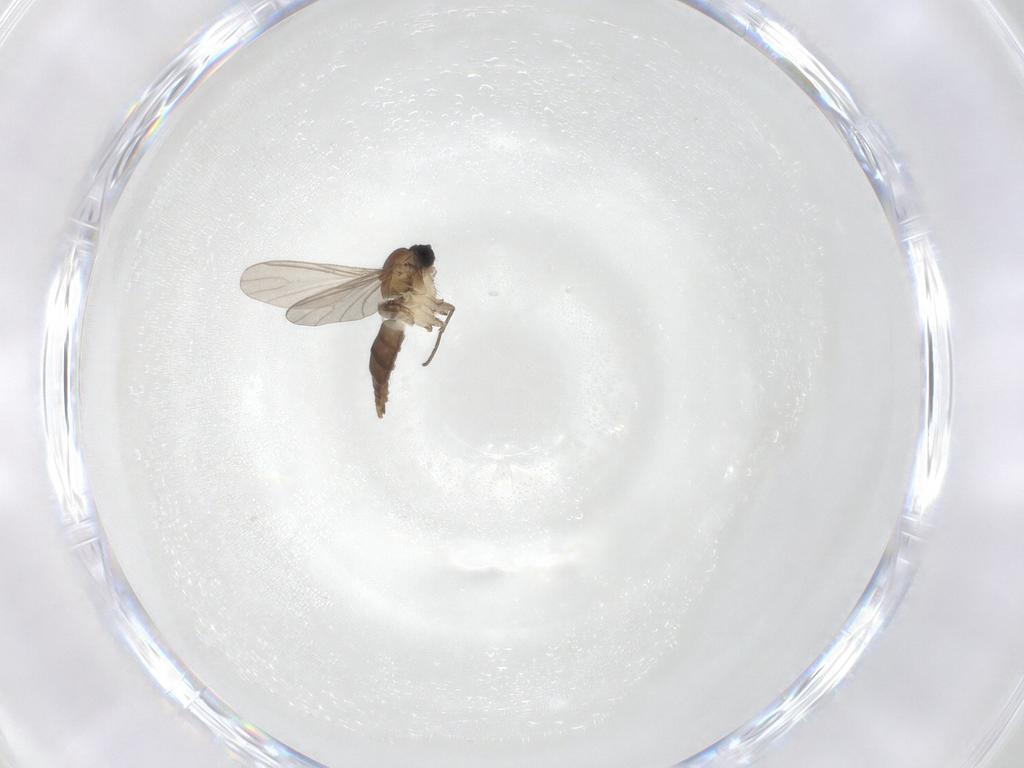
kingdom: Animalia
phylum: Arthropoda
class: Insecta
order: Diptera
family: Sciaridae
